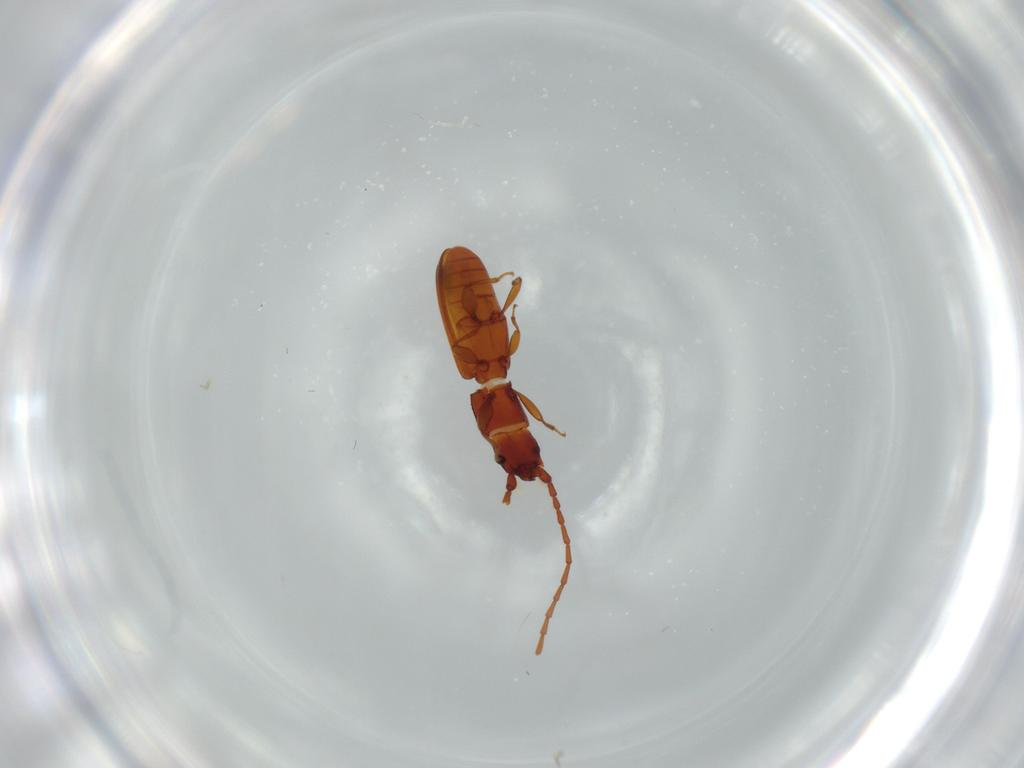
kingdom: Animalia
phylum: Arthropoda
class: Insecta
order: Coleoptera
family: Laemophloeidae
